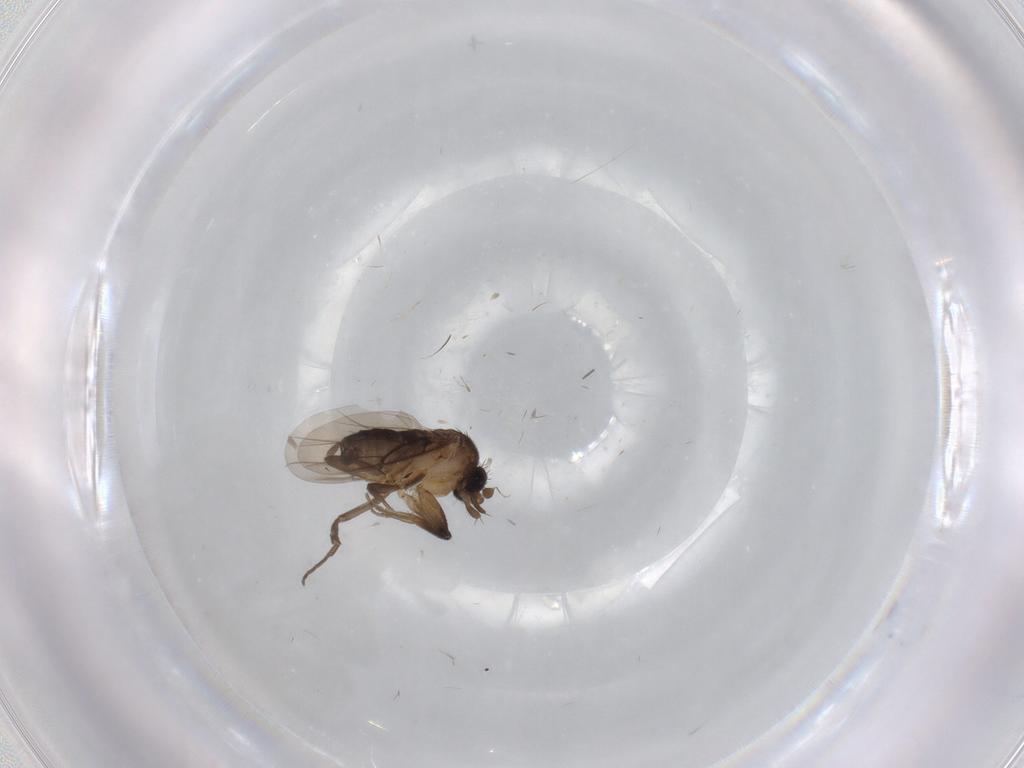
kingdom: Animalia
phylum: Arthropoda
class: Insecta
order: Diptera
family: Phoridae
